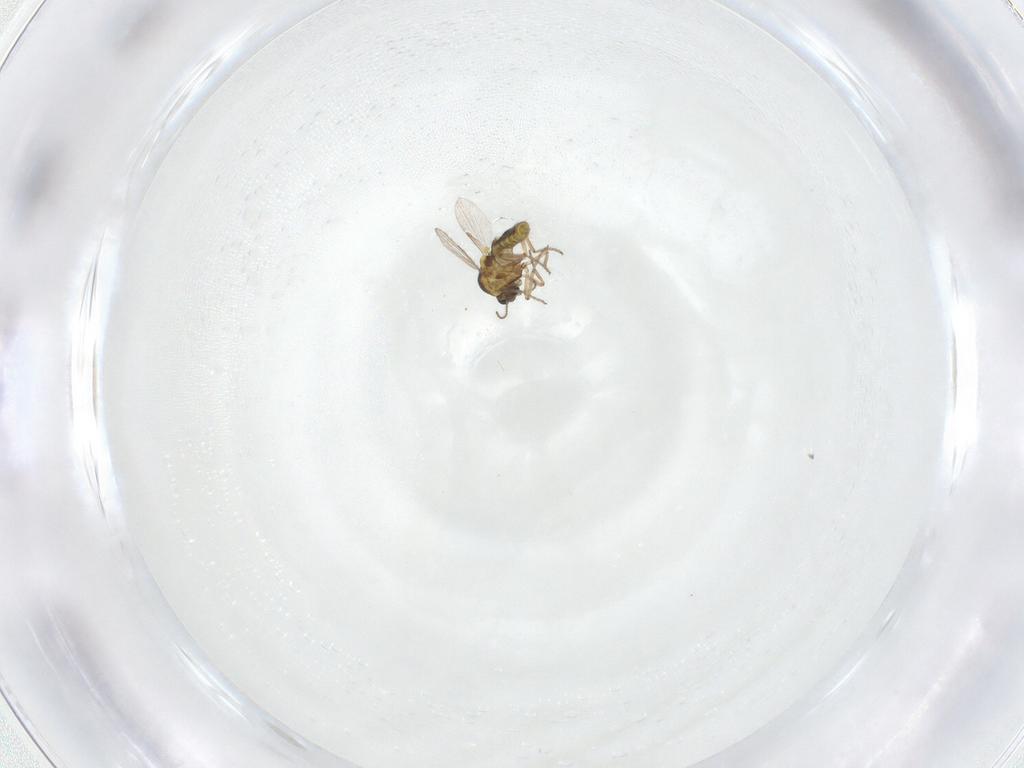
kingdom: Animalia
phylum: Arthropoda
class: Insecta
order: Diptera
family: Ceratopogonidae
